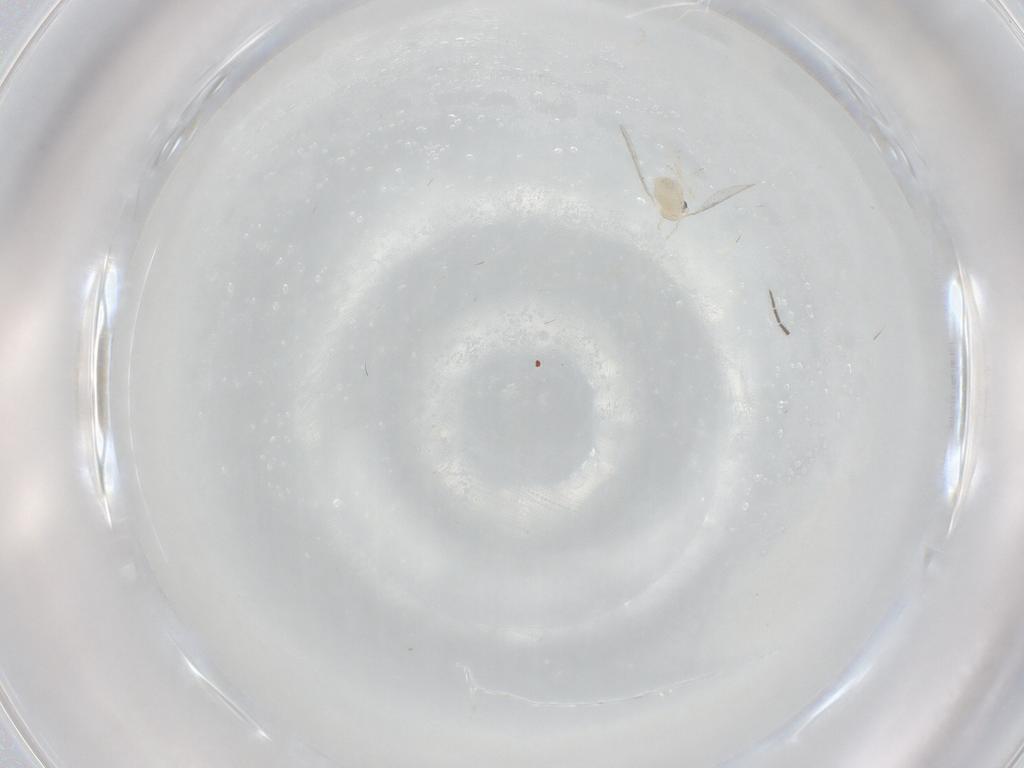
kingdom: Animalia
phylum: Arthropoda
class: Insecta
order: Diptera
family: Cecidomyiidae
